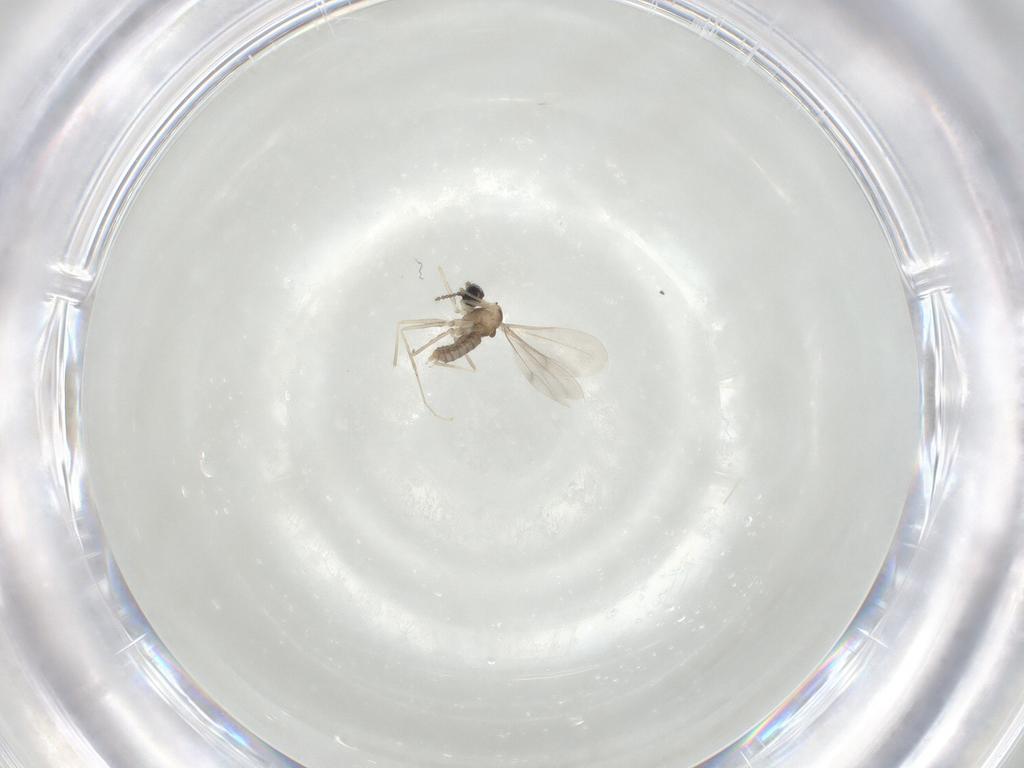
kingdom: Animalia
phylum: Arthropoda
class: Insecta
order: Diptera
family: Cecidomyiidae
